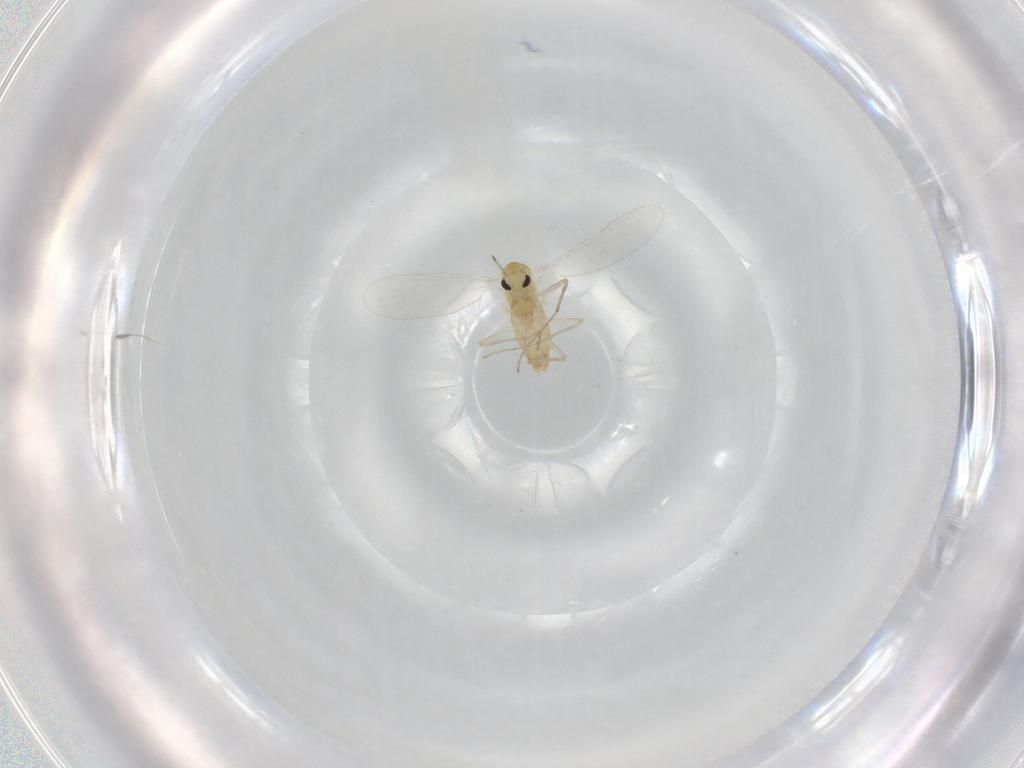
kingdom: Animalia
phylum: Arthropoda
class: Insecta
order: Diptera
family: Chironomidae
